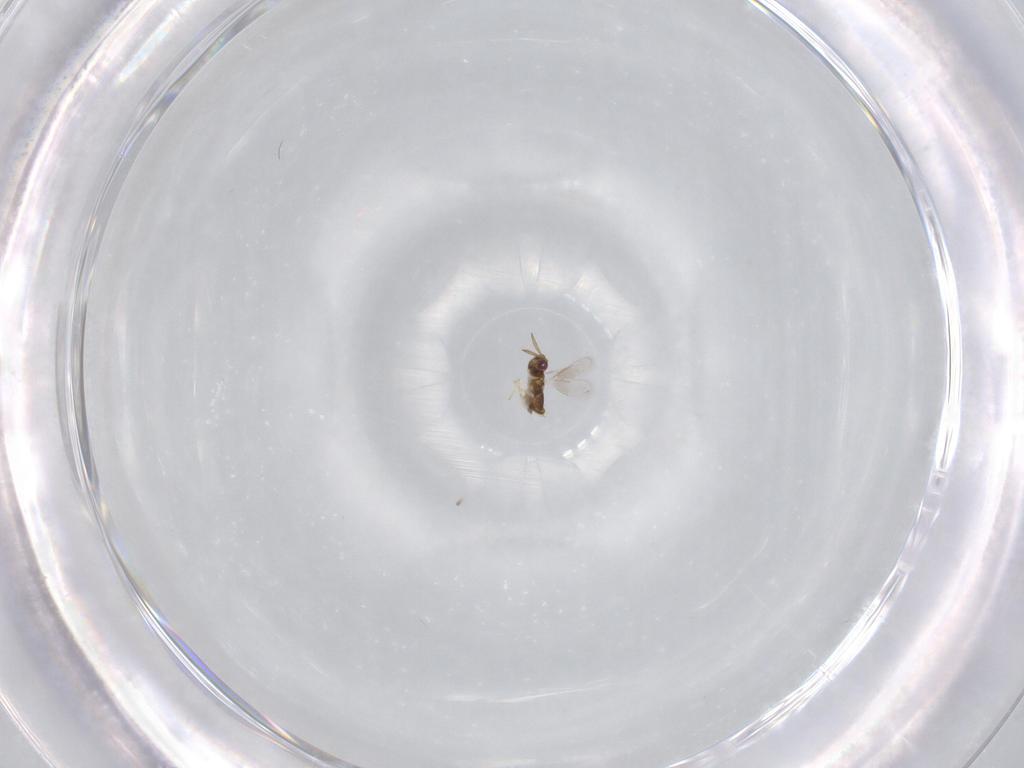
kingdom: Animalia
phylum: Arthropoda
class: Insecta
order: Hymenoptera
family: Aphelinidae
